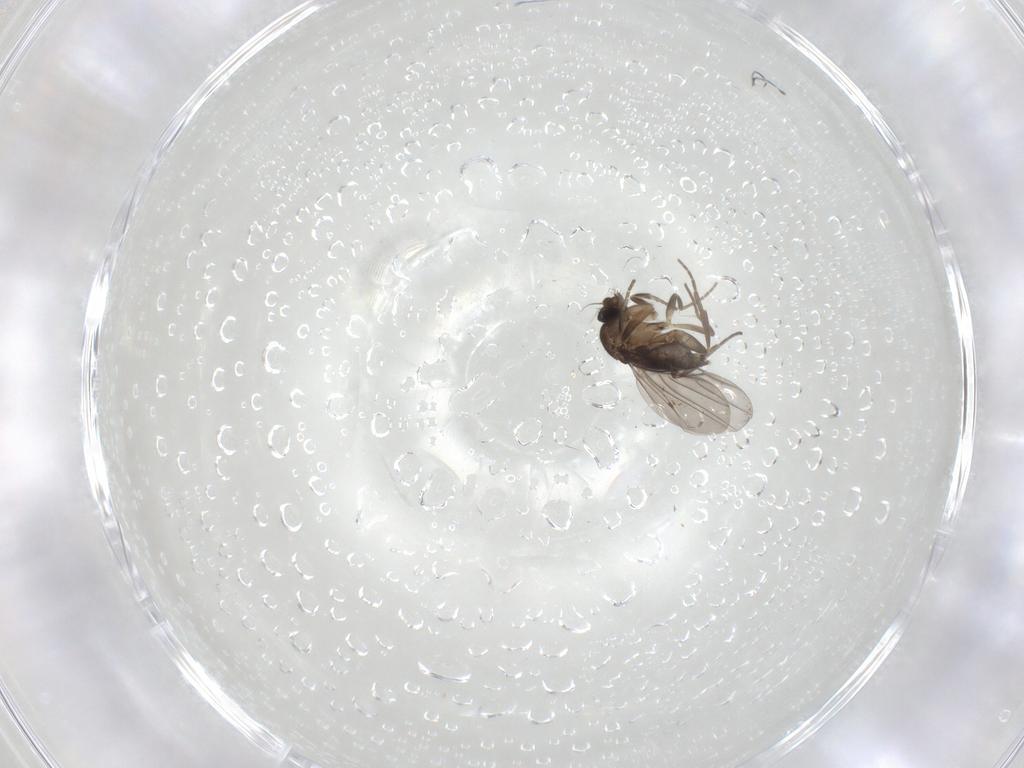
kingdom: Animalia
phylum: Arthropoda
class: Insecta
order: Diptera
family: Phoridae
